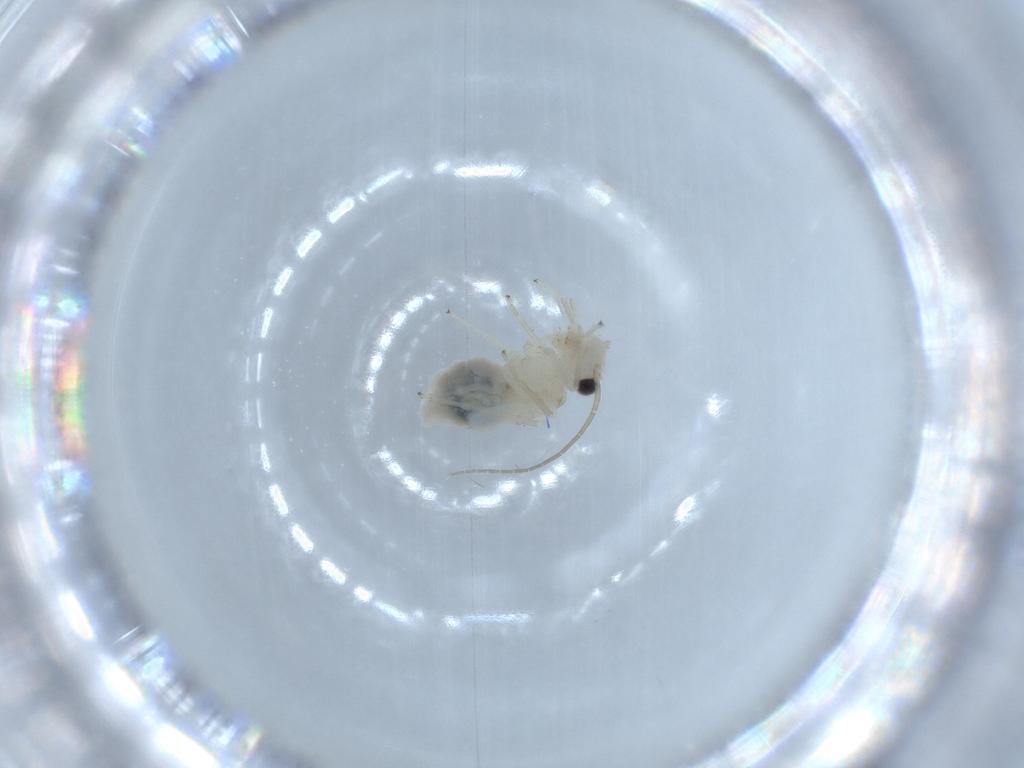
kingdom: Animalia
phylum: Arthropoda
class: Insecta
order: Psocodea
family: Caeciliusidae
